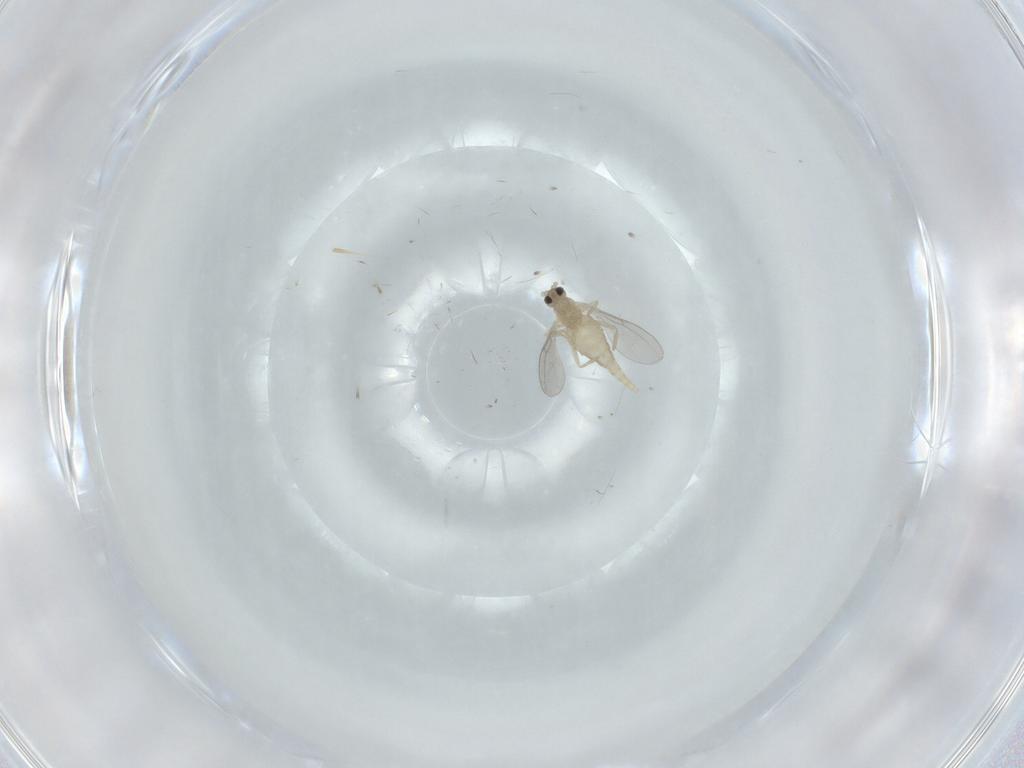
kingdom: Animalia
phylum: Arthropoda
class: Insecta
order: Diptera
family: Cecidomyiidae
